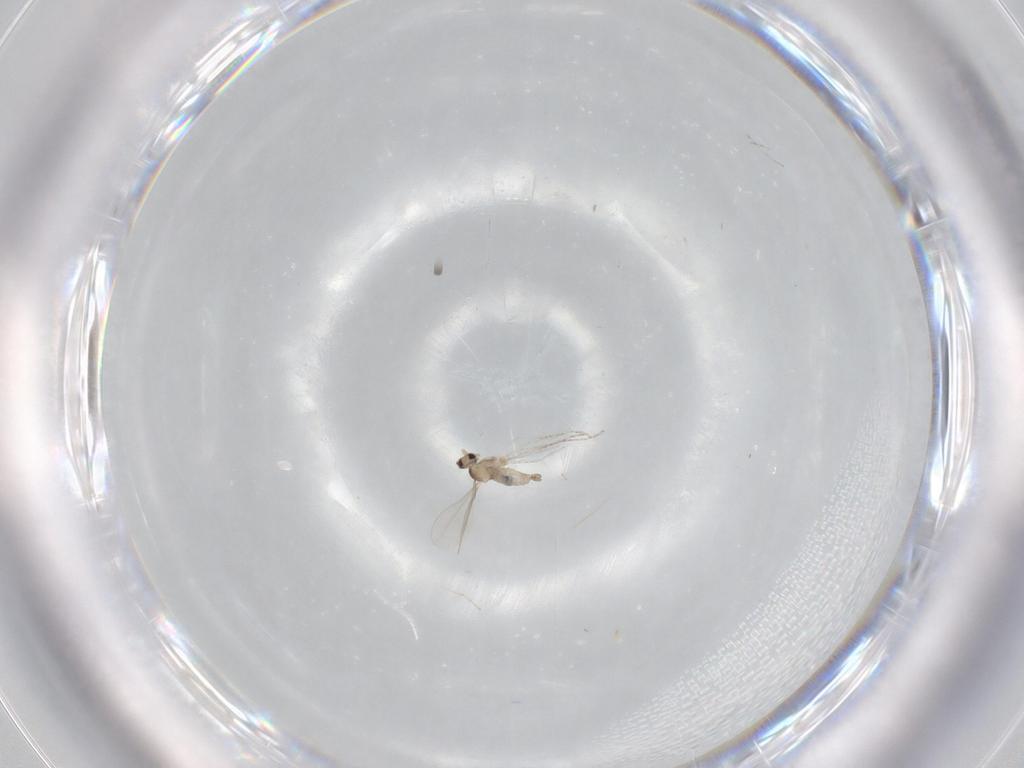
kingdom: Animalia
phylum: Arthropoda
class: Insecta
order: Diptera
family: Cecidomyiidae
